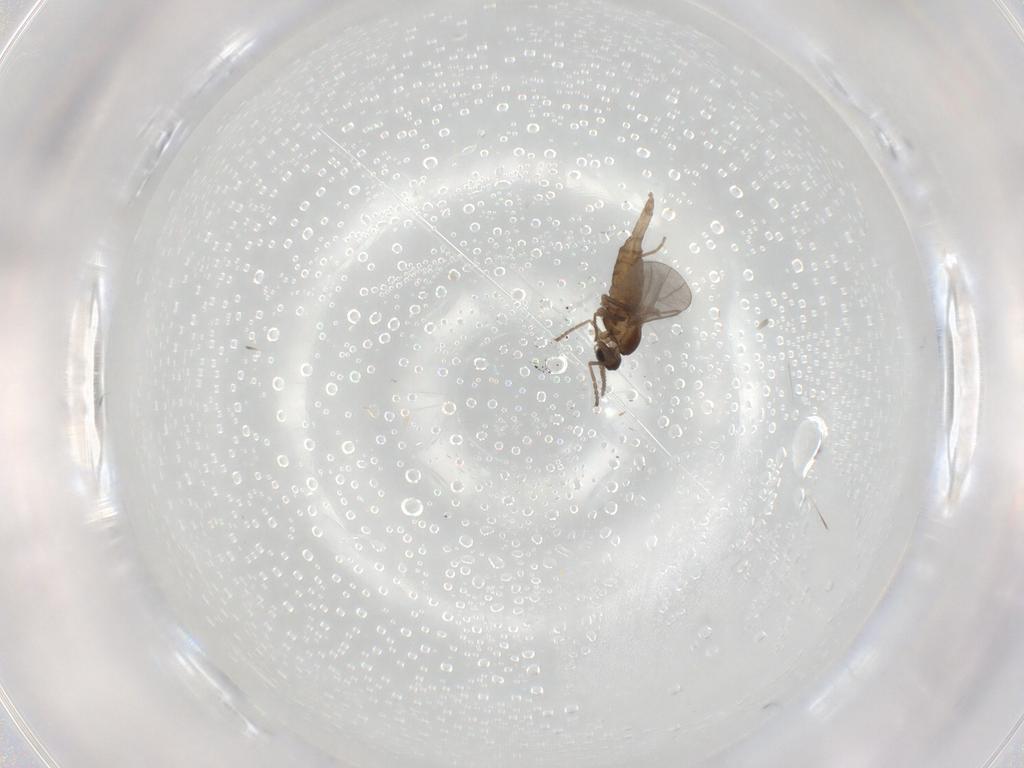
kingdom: Animalia
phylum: Arthropoda
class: Insecta
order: Diptera
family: Cecidomyiidae
